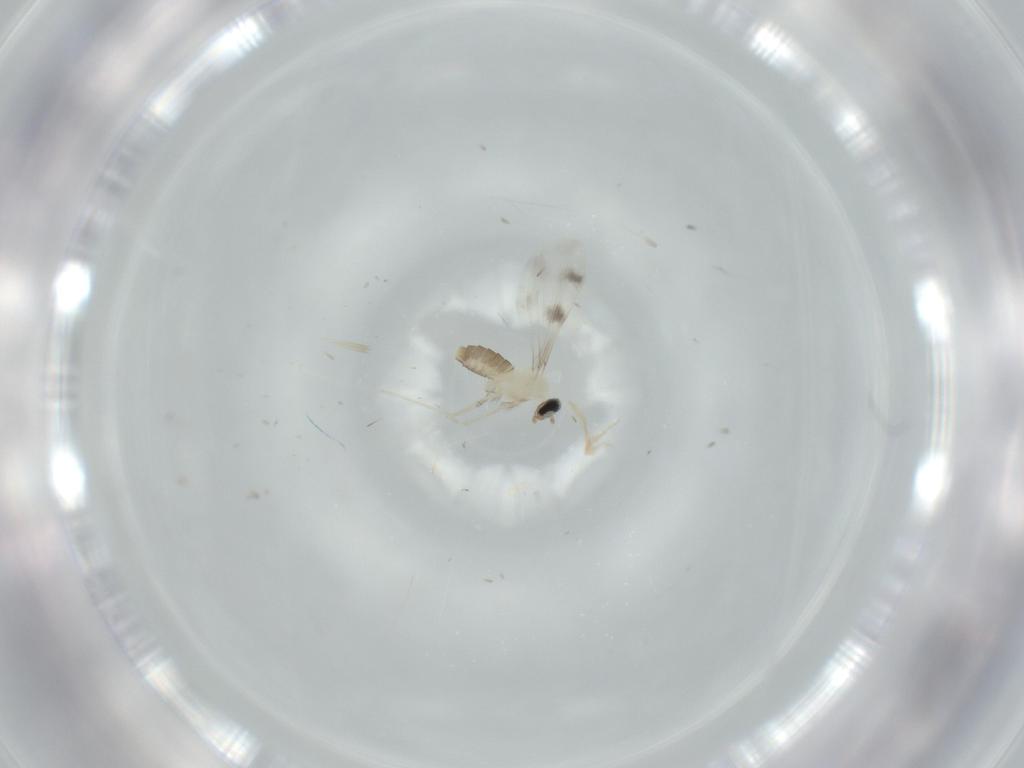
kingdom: Animalia
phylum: Arthropoda
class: Insecta
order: Diptera
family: Cecidomyiidae
